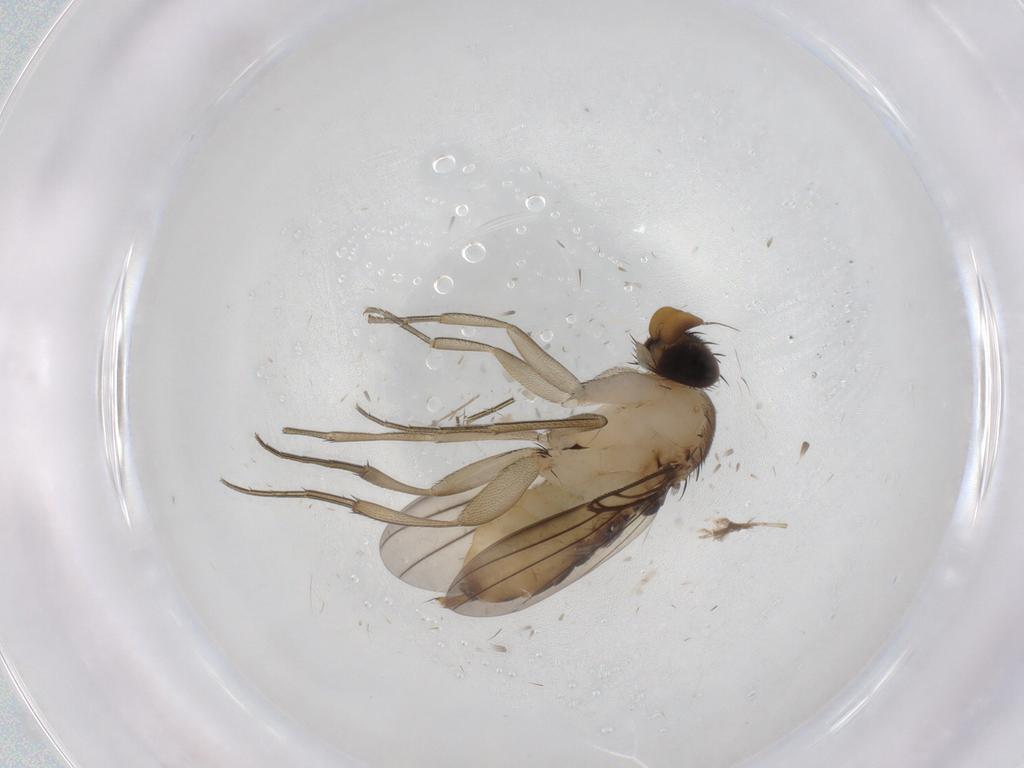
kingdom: Animalia
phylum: Arthropoda
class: Insecta
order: Diptera
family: Phoridae
